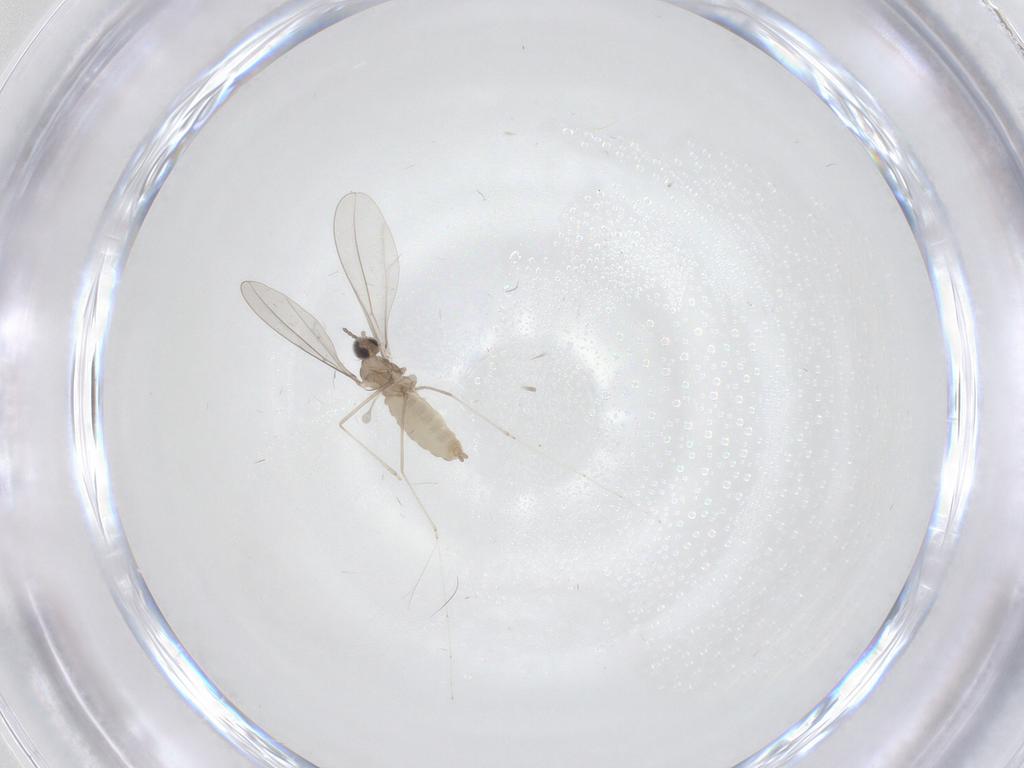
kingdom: Animalia
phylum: Arthropoda
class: Insecta
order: Diptera
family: Cecidomyiidae
